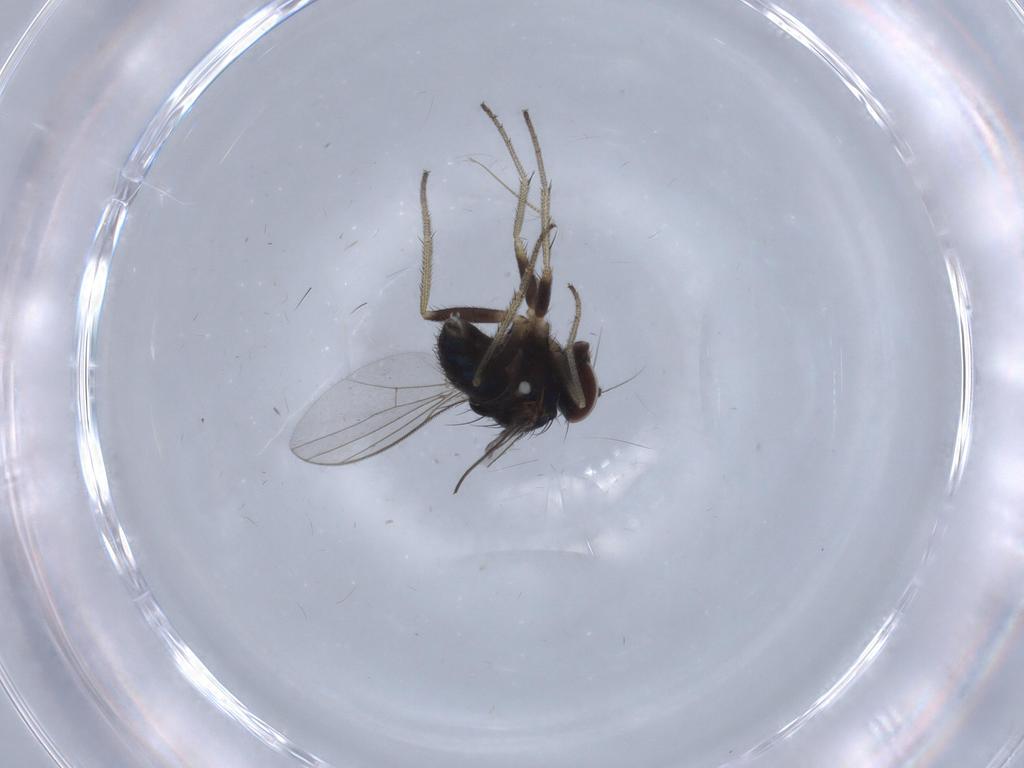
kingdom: Animalia
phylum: Arthropoda
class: Insecta
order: Diptera
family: Chironomidae
